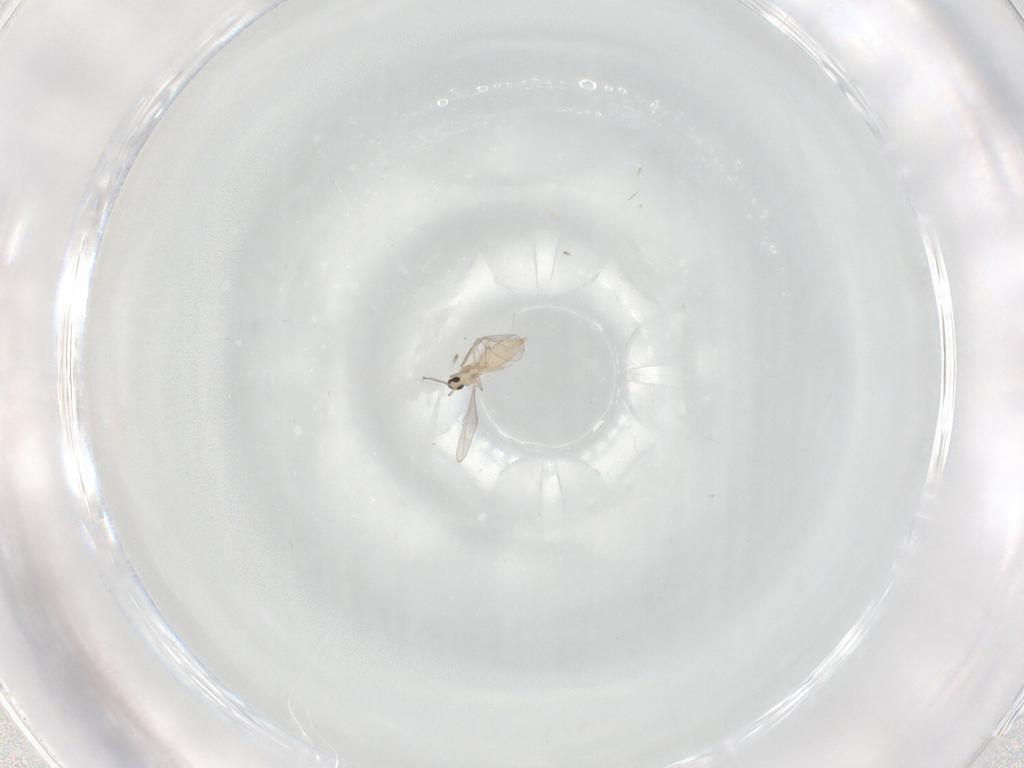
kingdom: Animalia
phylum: Arthropoda
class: Insecta
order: Diptera
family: Cecidomyiidae
